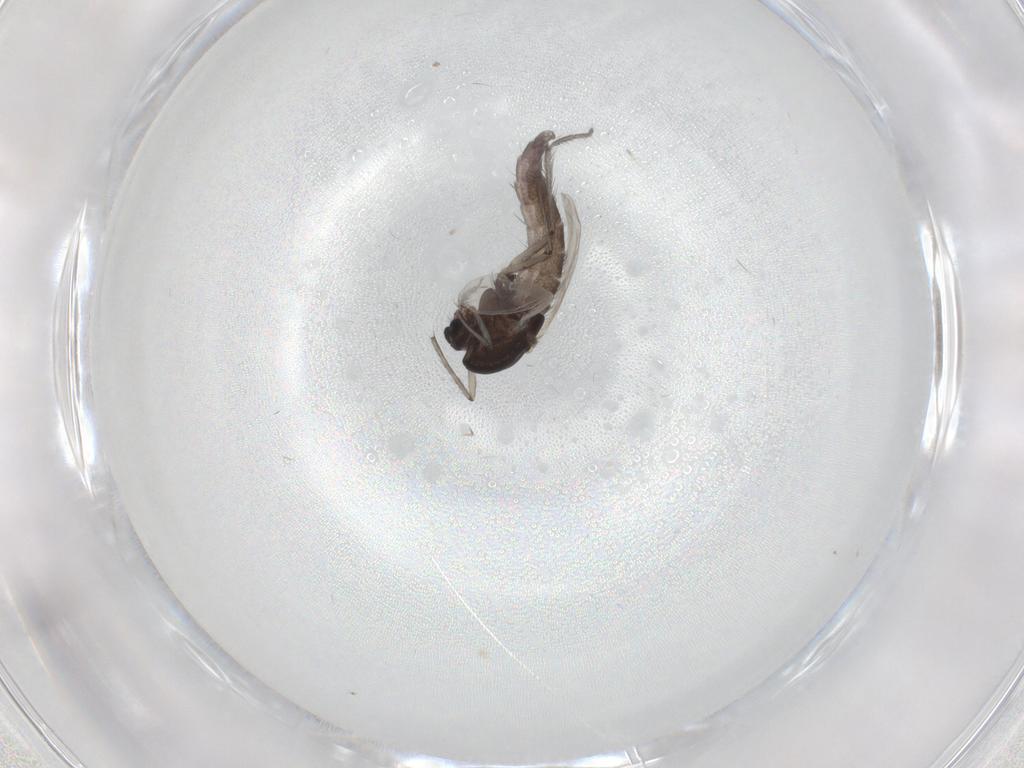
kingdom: Animalia
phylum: Arthropoda
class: Insecta
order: Diptera
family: Chironomidae
